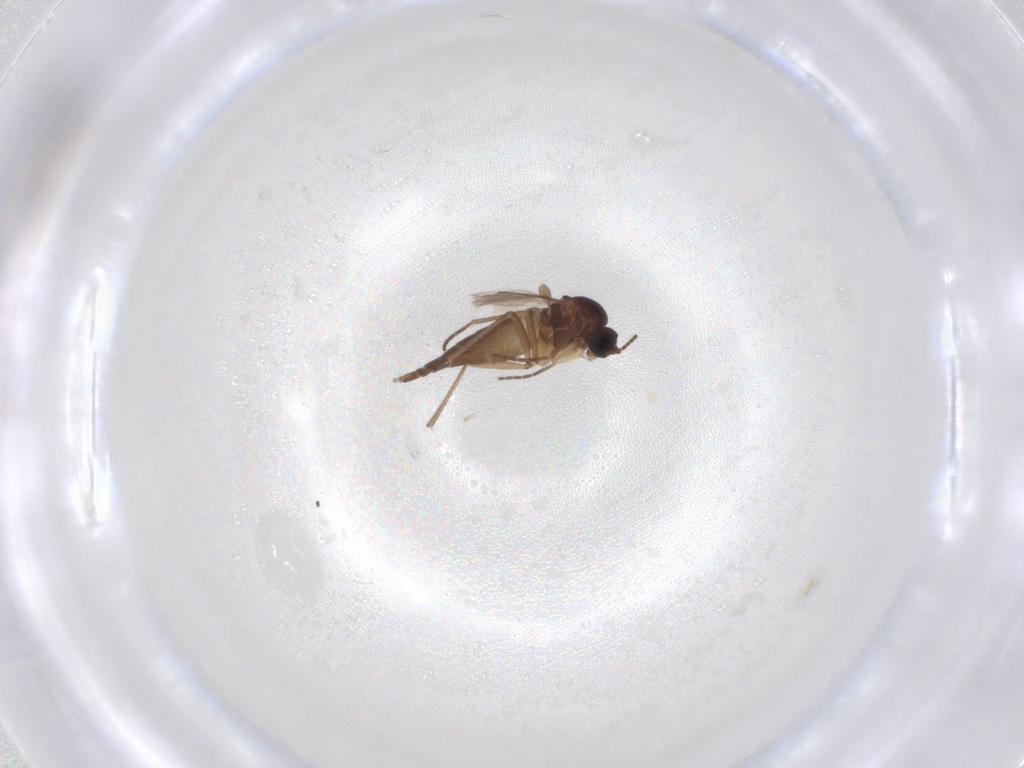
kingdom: Animalia
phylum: Arthropoda
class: Insecta
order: Diptera
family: Sciaridae
